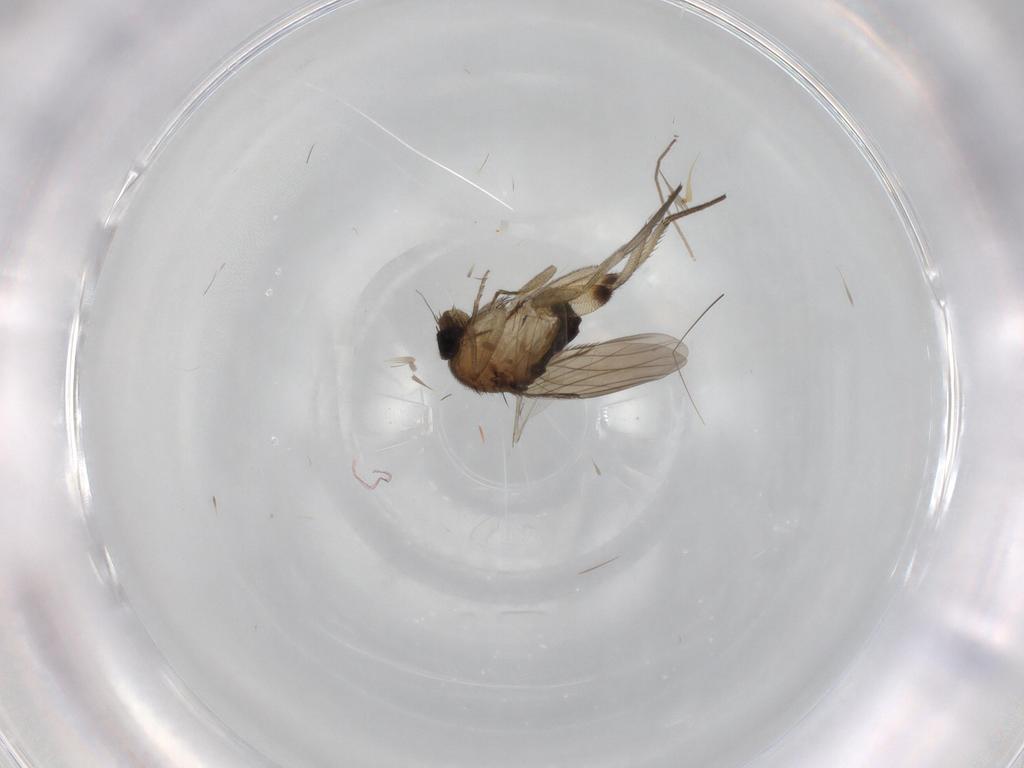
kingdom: Animalia
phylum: Arthropoda
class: Insecta
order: Diptera
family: Phoridae
